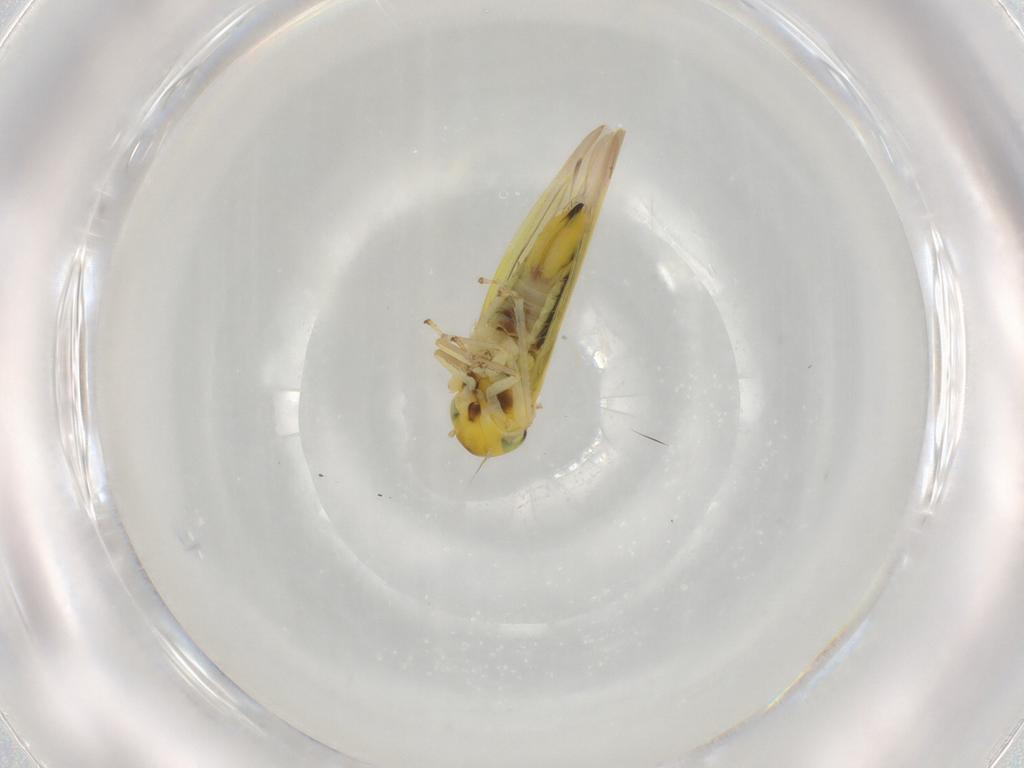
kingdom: Animalia
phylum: Arthropoda
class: Insecta
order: Hemiptera
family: Cicadellidae
